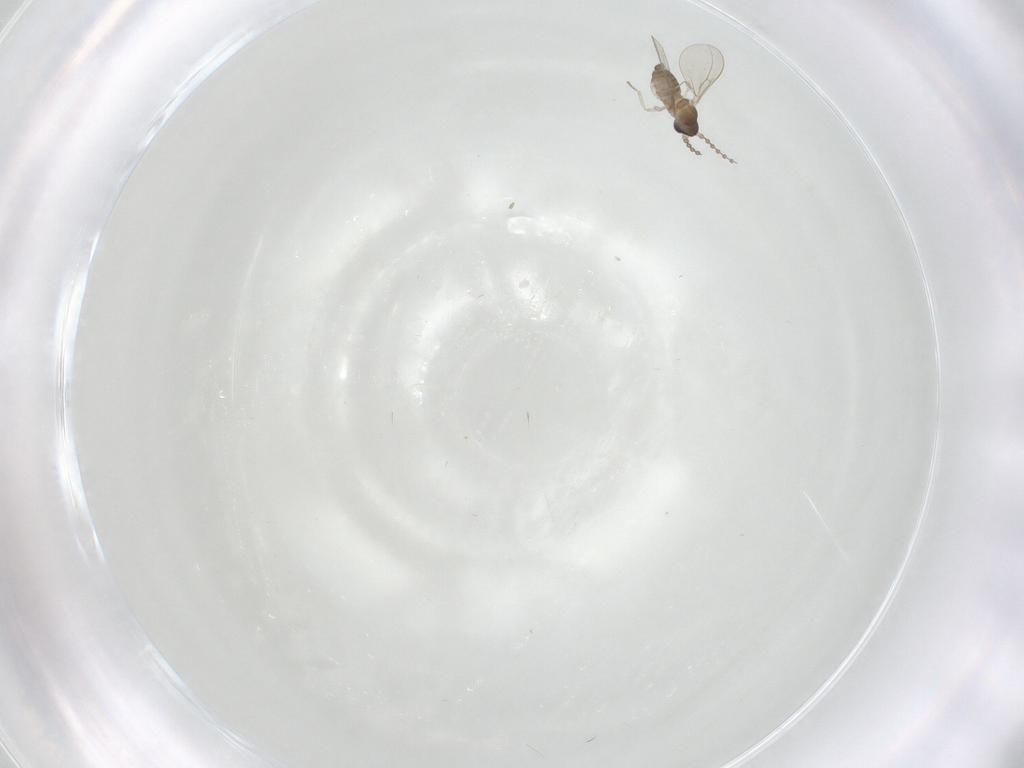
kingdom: Animalia
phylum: Arthropoda
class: Insecta
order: Diptera
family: Cecidomyiidae
